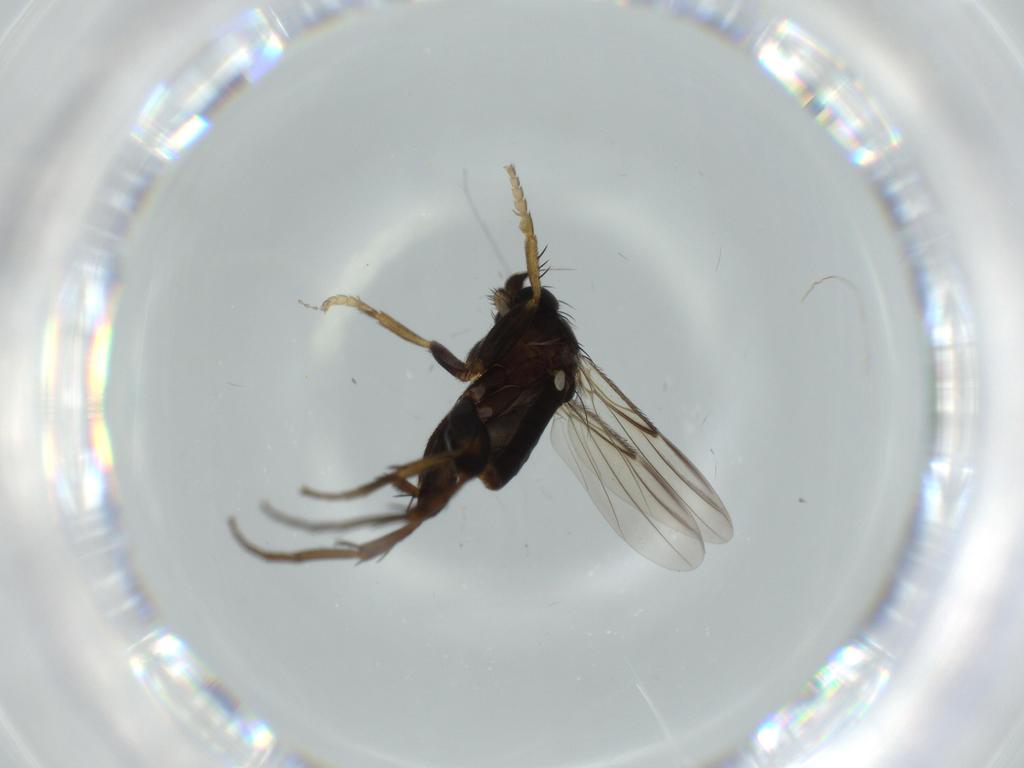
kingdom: Animalia
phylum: Arthropoda
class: Insecta
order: Diptera
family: Phoridae
